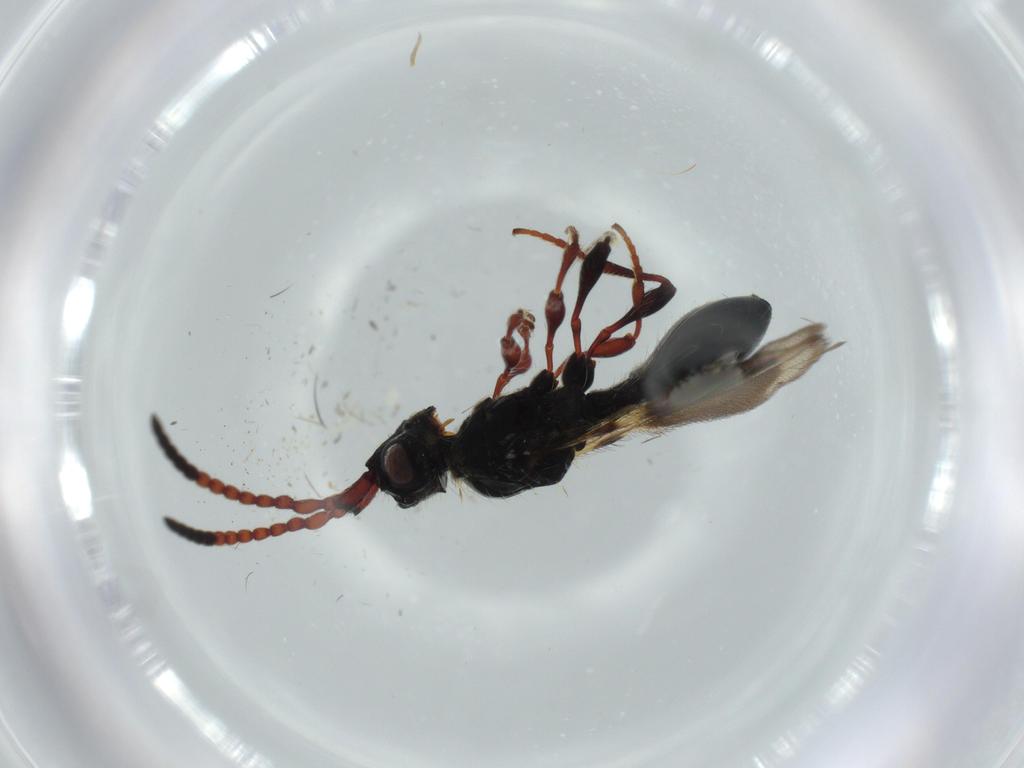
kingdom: Animalia
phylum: Arthropoda
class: Insecta
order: Hymenoptera
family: Diapriidae
